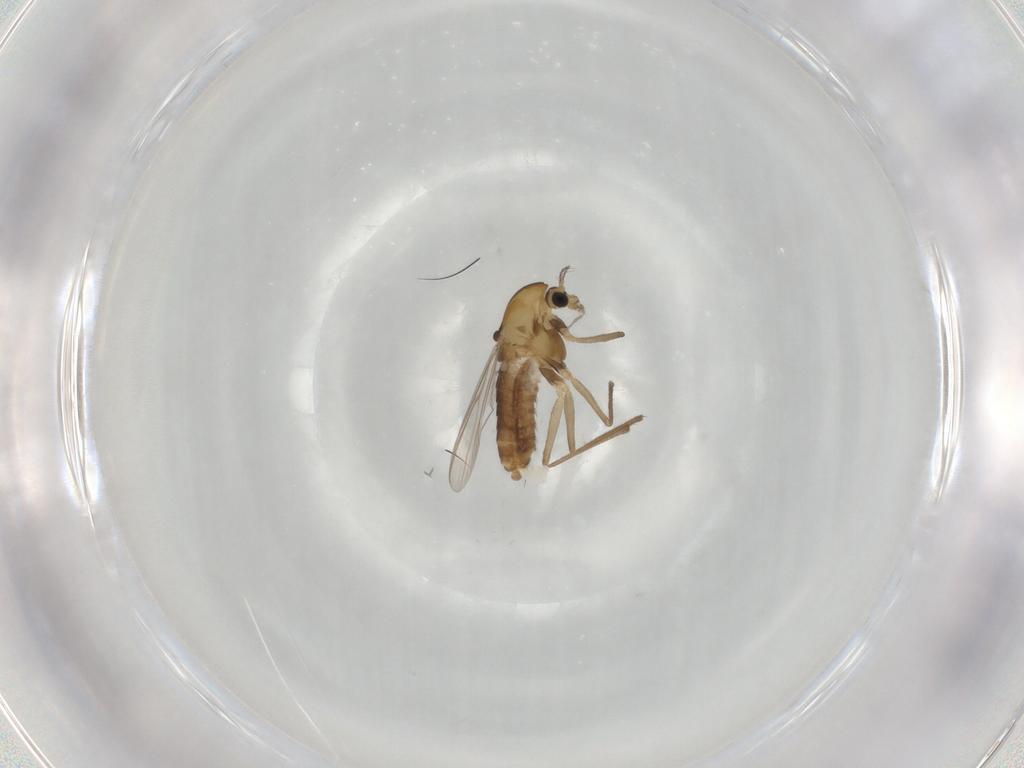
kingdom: Animalia
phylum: Arthropoda
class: Insecta
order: Diptera
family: Chironomidae
